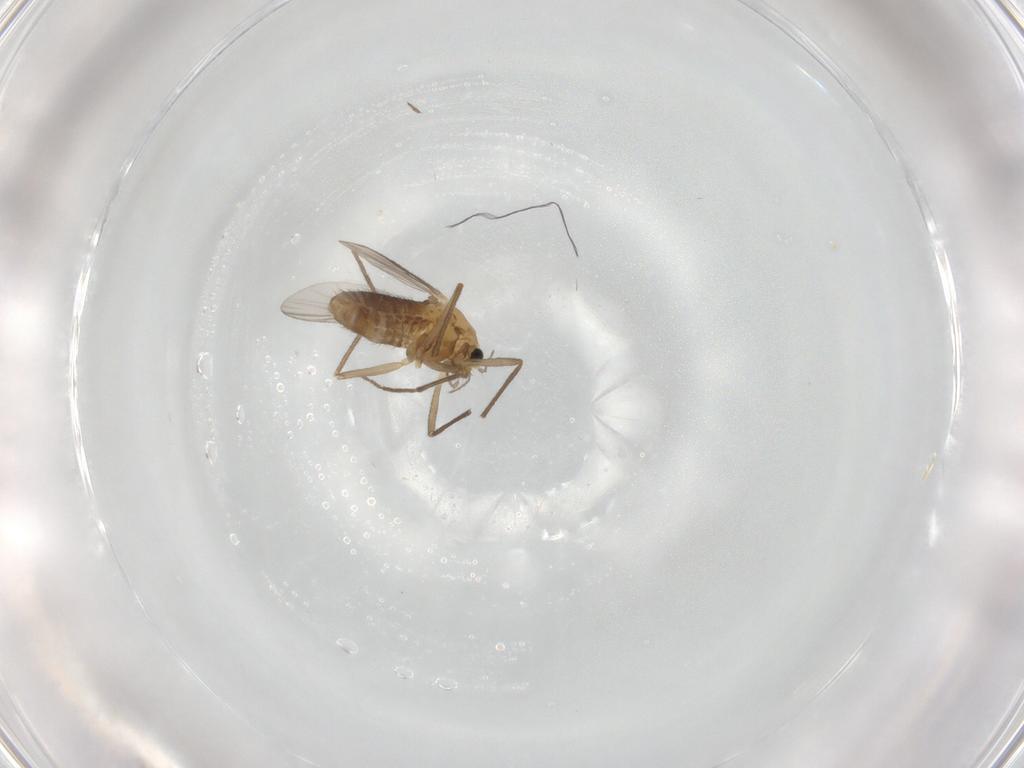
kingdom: Animalia
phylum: Arthropoda
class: Insecta
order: Diptera
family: Chironomidae
